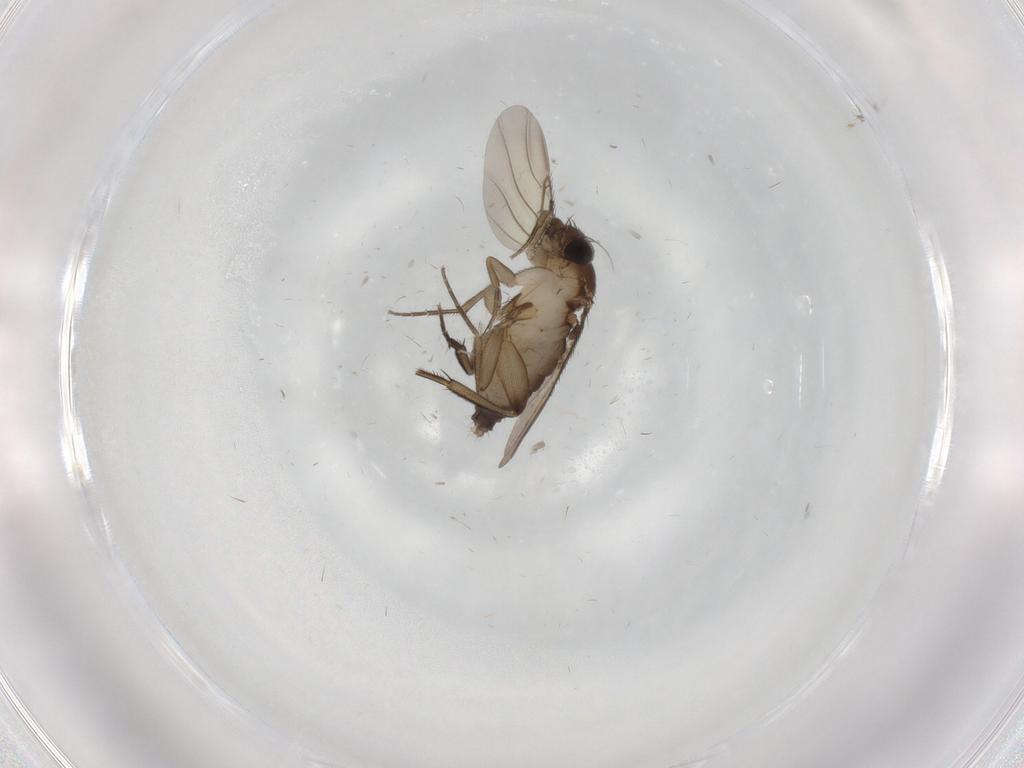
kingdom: Animalia
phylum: Arthropoda
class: Insecta
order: Diptera
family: Phoridae
